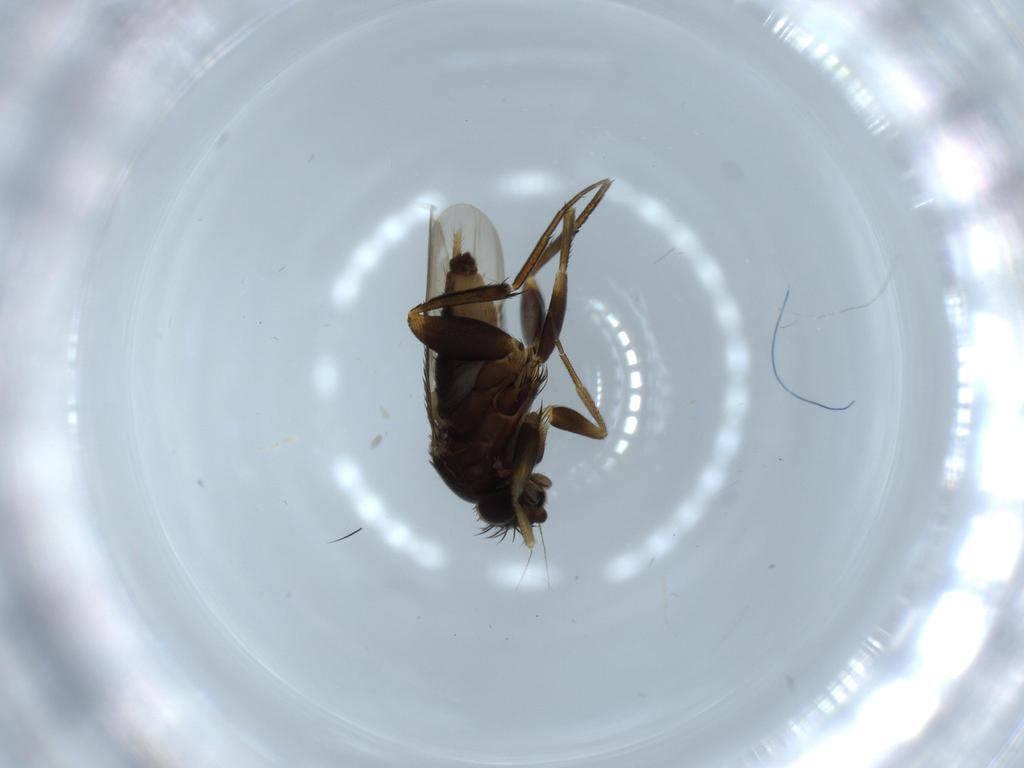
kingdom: Animalia
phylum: Arthropoda
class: Insecta
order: Diptera
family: Phoridae
